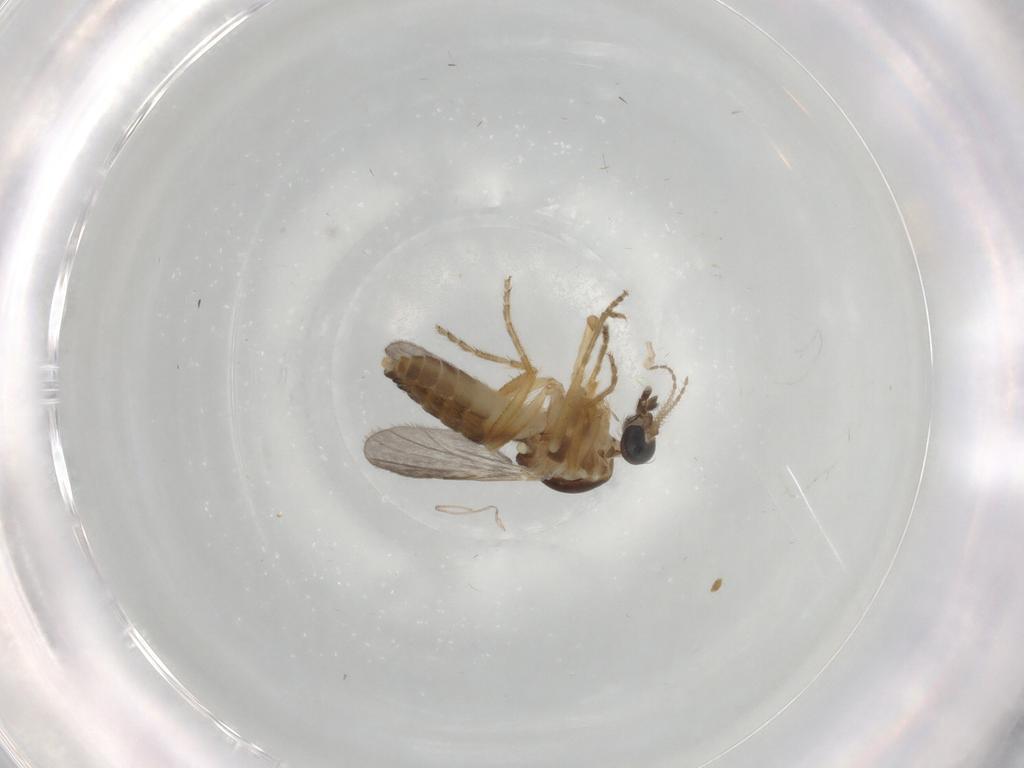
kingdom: Animalia
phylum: Arthropoda
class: Insecta
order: Diptera
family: Ceratopogonidae
